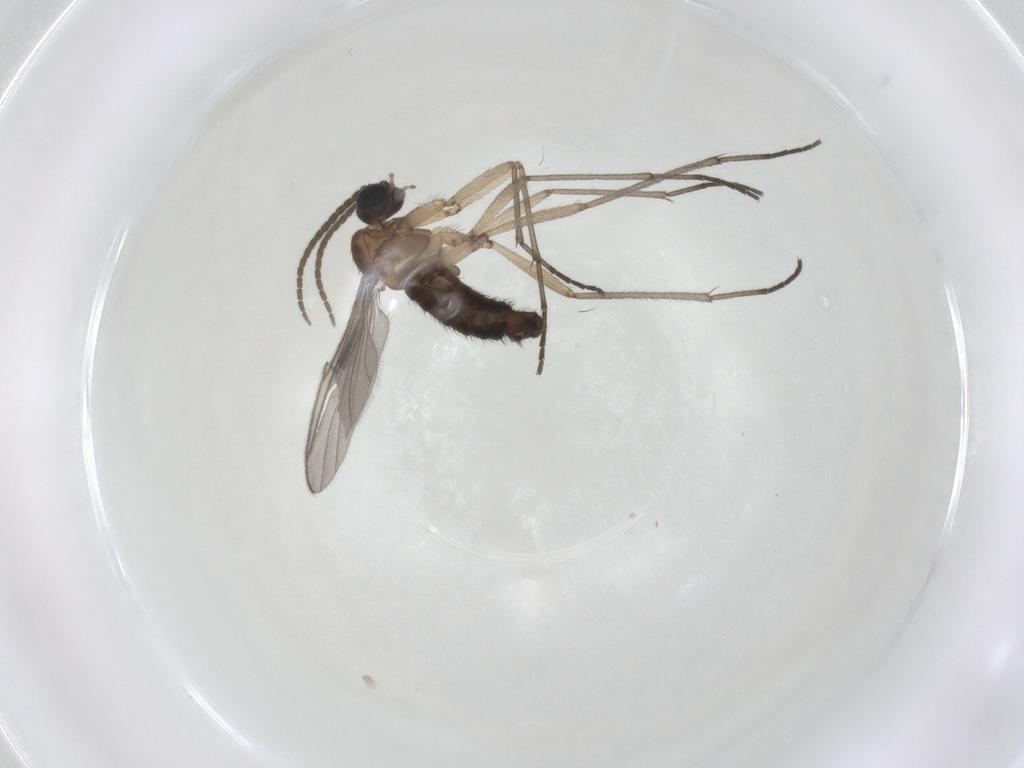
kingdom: Animalia
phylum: Arthropoda
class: Insecta
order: Diptera
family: Sciaridae
